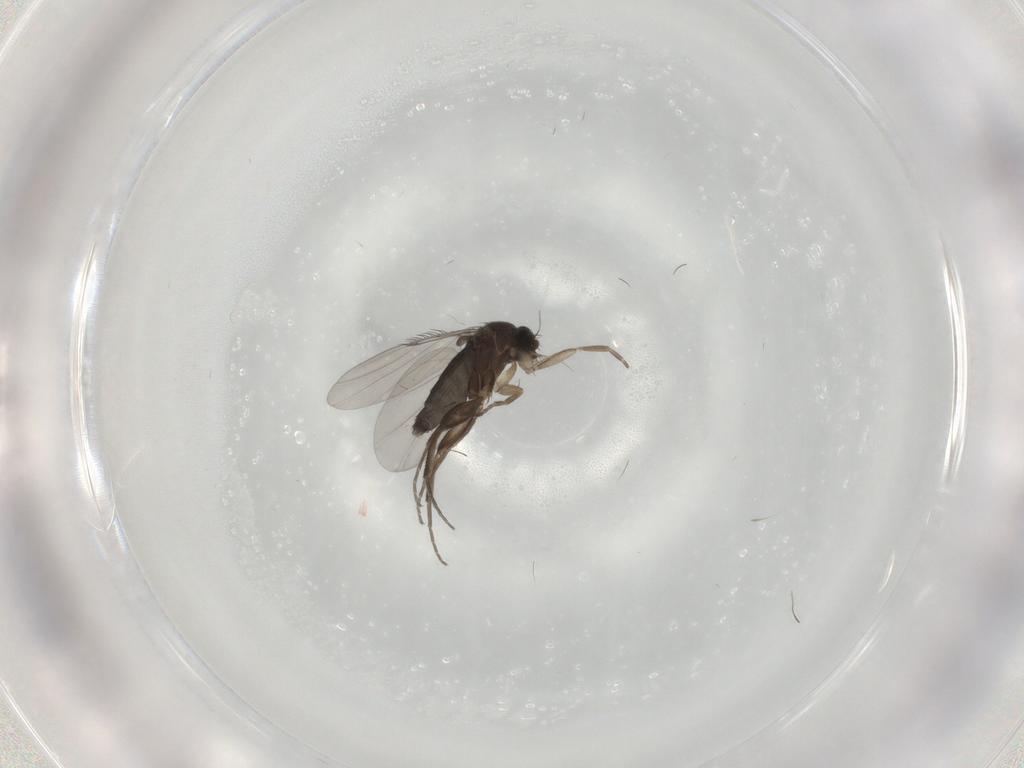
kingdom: Animalia
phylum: Arthropoda
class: Insecta
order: Diptera
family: Phoridae
